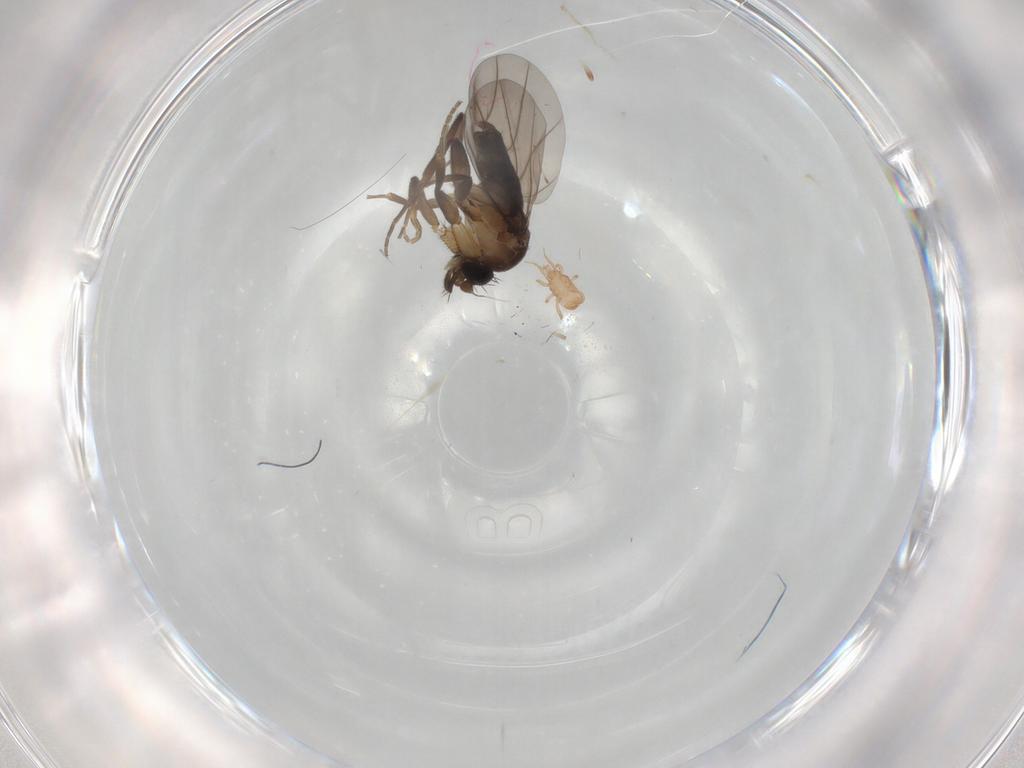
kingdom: Animalia
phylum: Arthropoda
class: Insecta
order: Diptera
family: Phoridae
